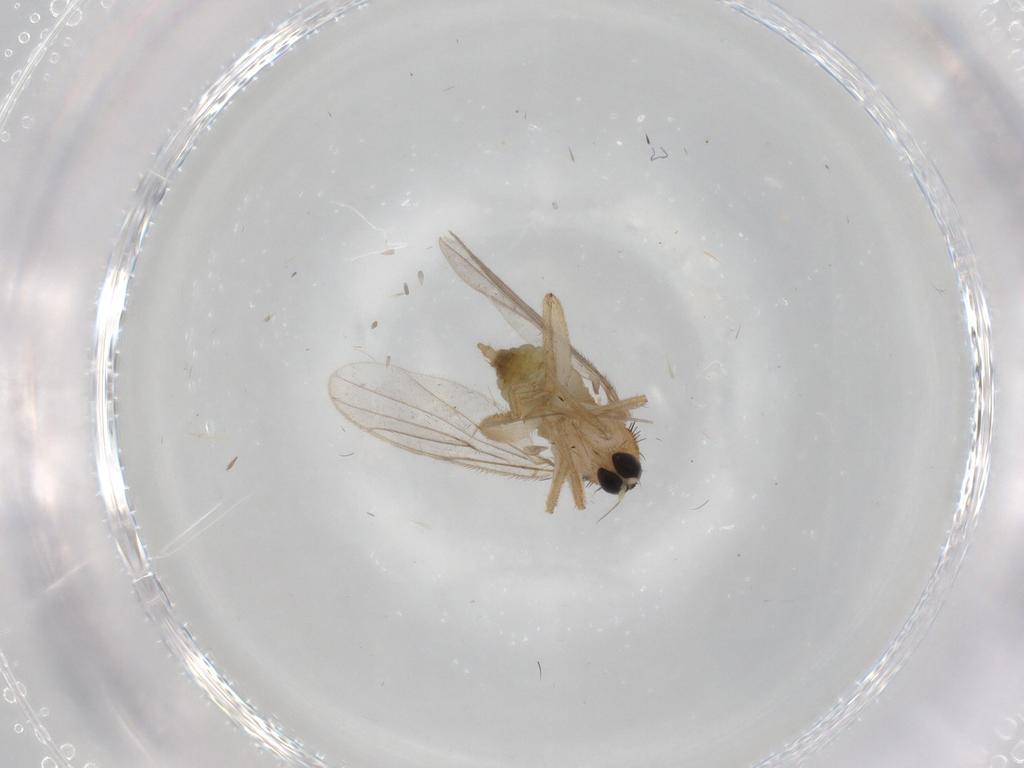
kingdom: Animalia
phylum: Arthropoda
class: Insecta
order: Diptera
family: Hybotidae
